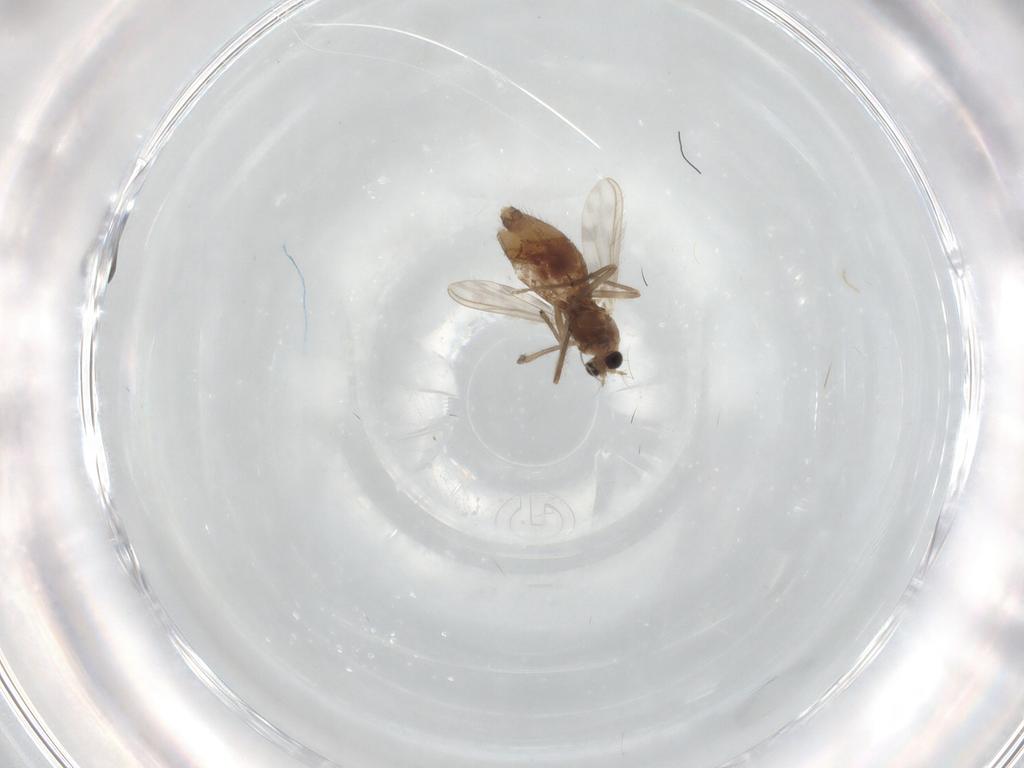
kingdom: Animalia
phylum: Arthropoda
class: Insecta
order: Diptera
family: Chironomidae
